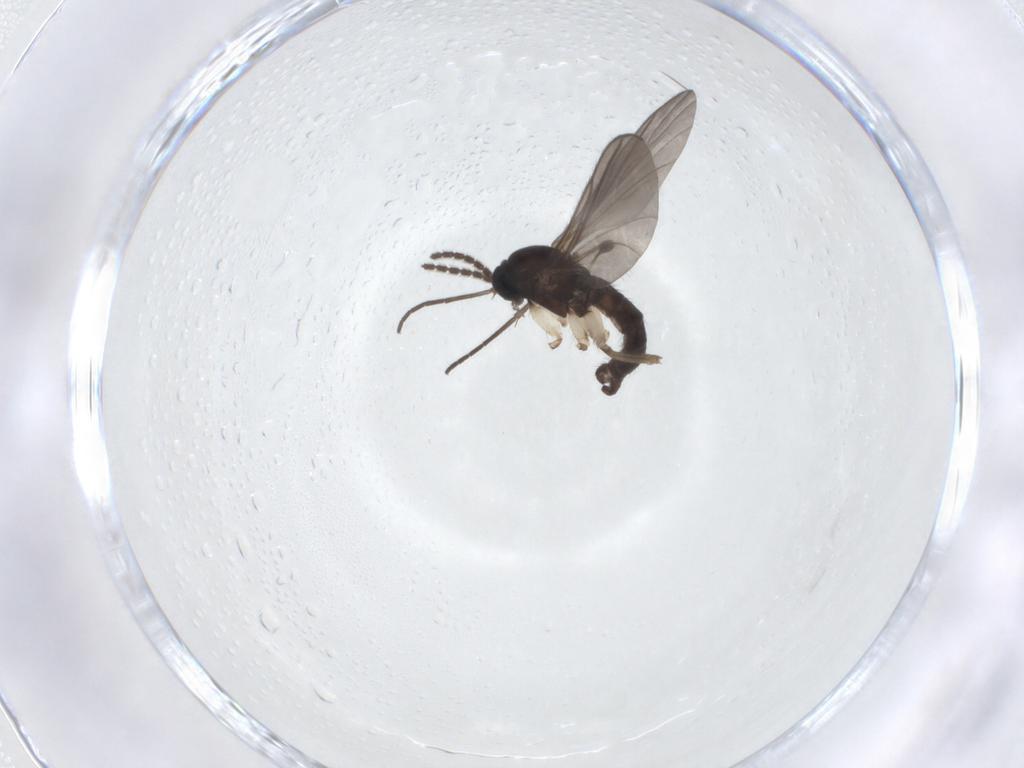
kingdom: Animalia
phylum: Arthropoda
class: Insecta
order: Diptera
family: Sciaridae
